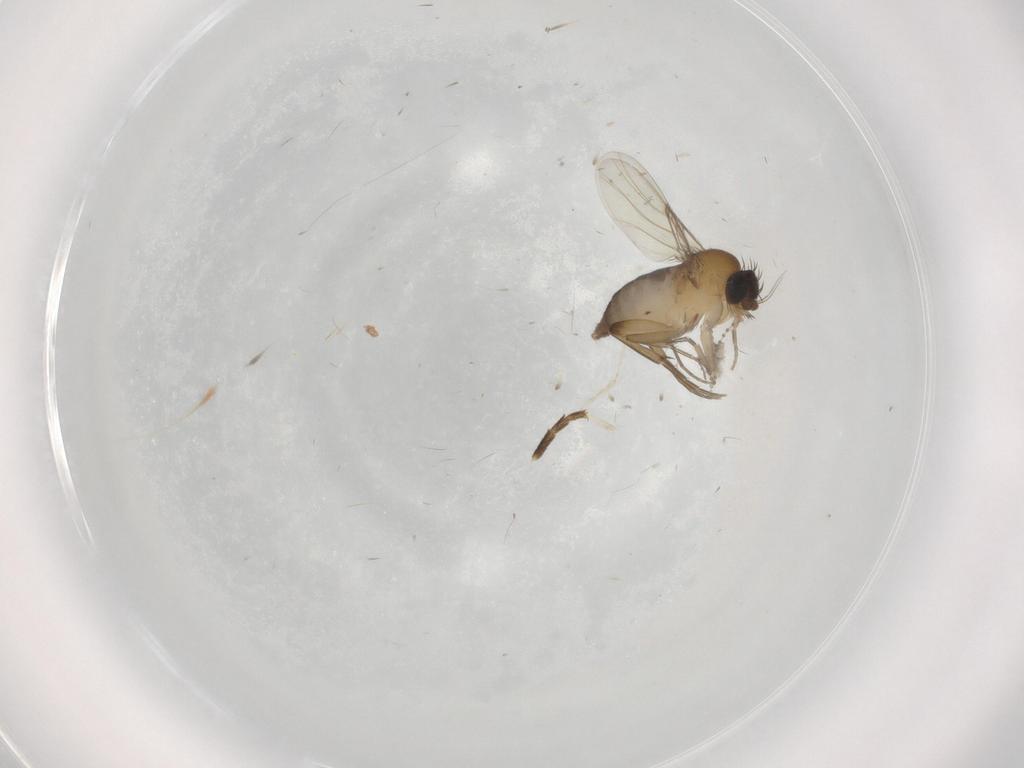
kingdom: Animalia
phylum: Arthropoda
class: Insecta
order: Diptera
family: Phoridae
